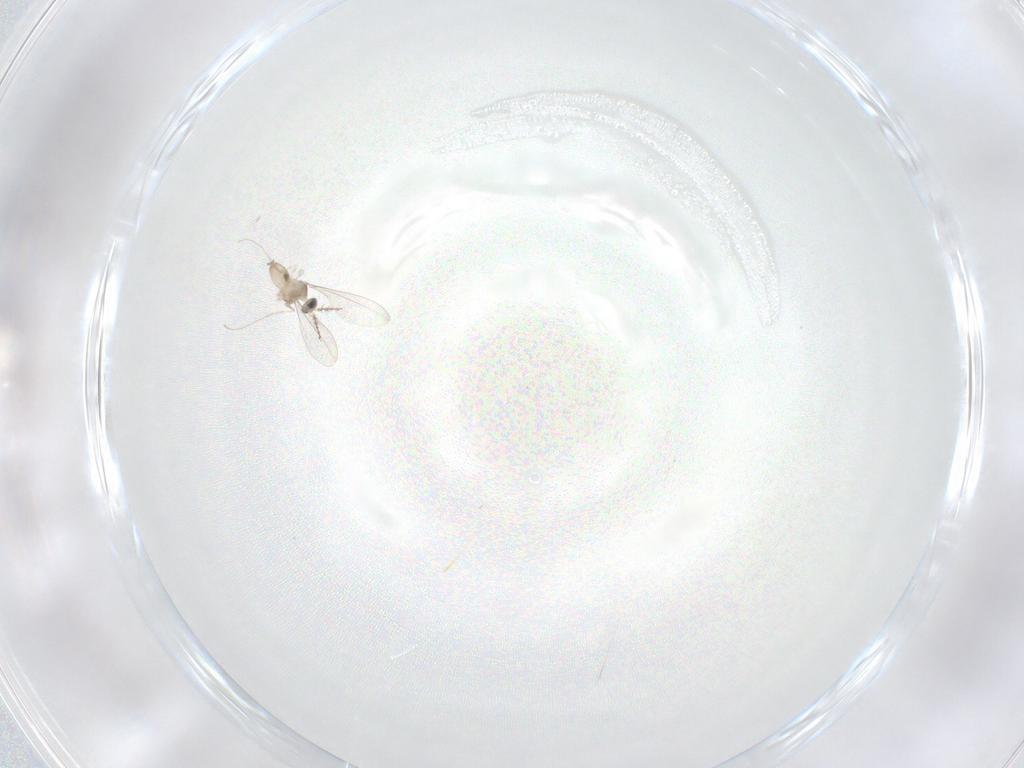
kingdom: Animalia
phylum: Arthropoda
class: Insecta
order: Diptera
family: Cecidomyiidae
